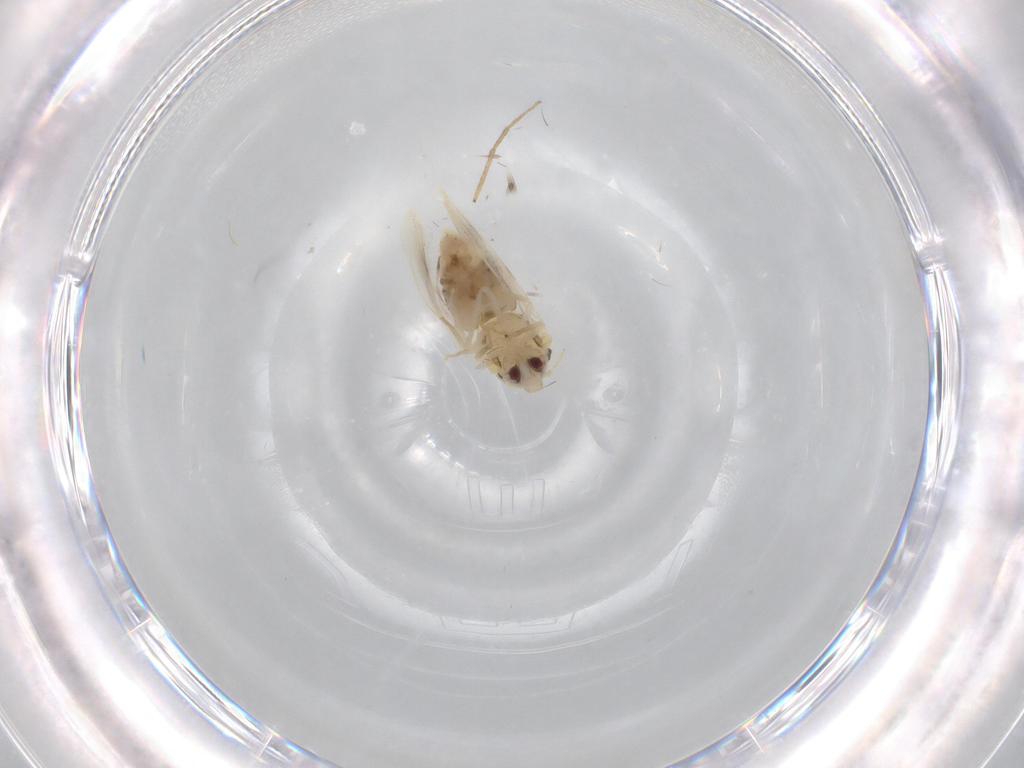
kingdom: Animalia
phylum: Arthropoda
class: Insecta
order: Hemiptera
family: Aleyrodidae
